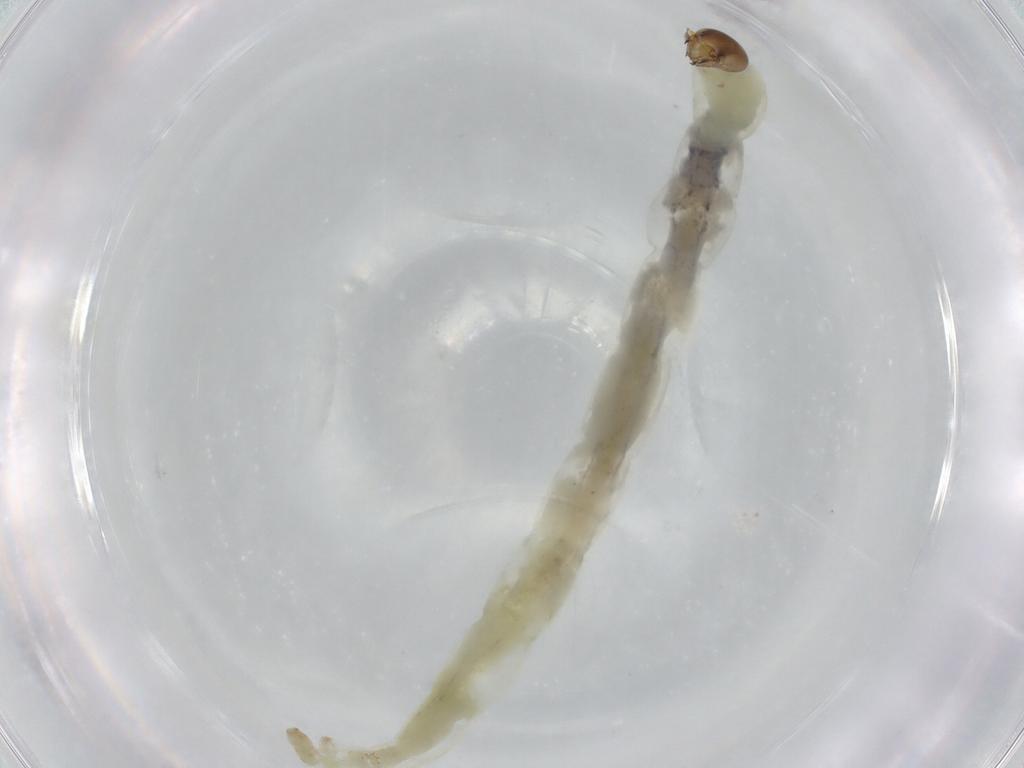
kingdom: Animalia
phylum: Arthropoda
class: Insecta
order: Diptera
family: Chironomidae
